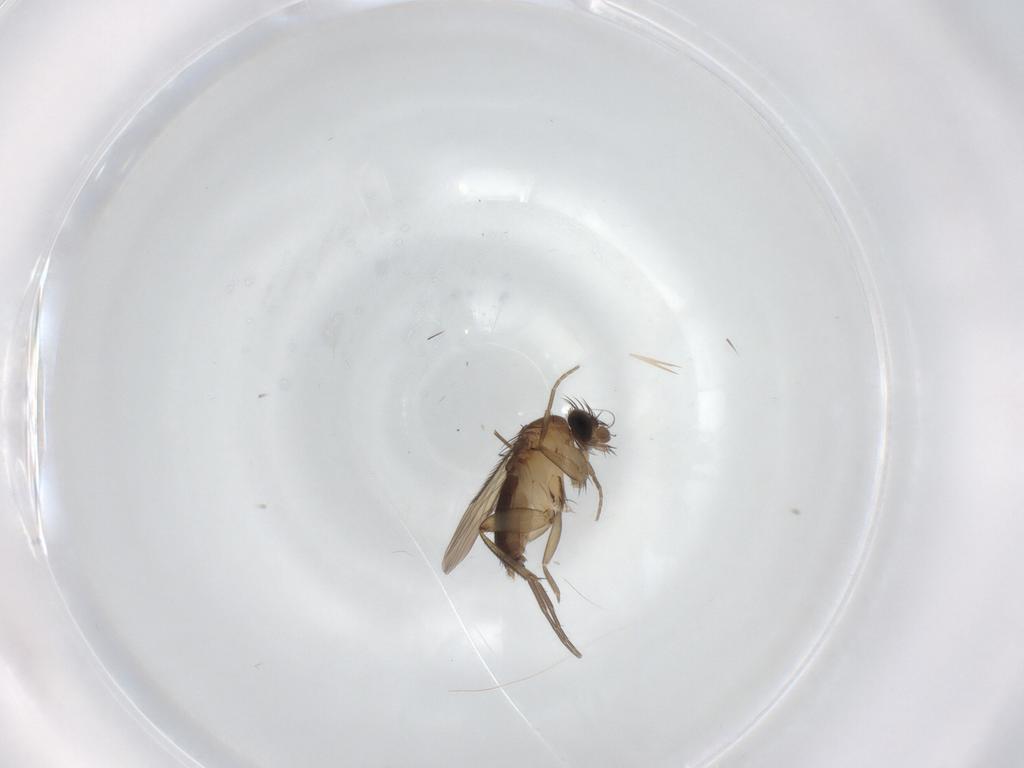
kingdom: Animalia
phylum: Arthropoda
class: Insecta
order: Diptera
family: Phoridae
